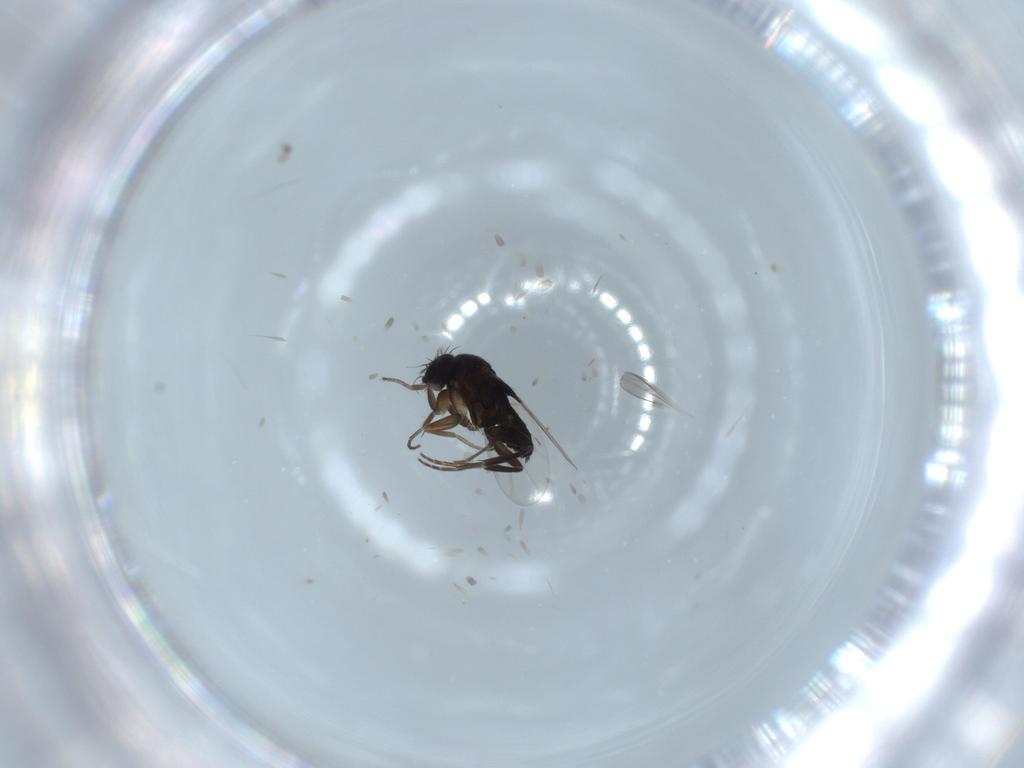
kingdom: Animalia
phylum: Arthropoda
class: Insecta
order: Diptera
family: Phoridae
